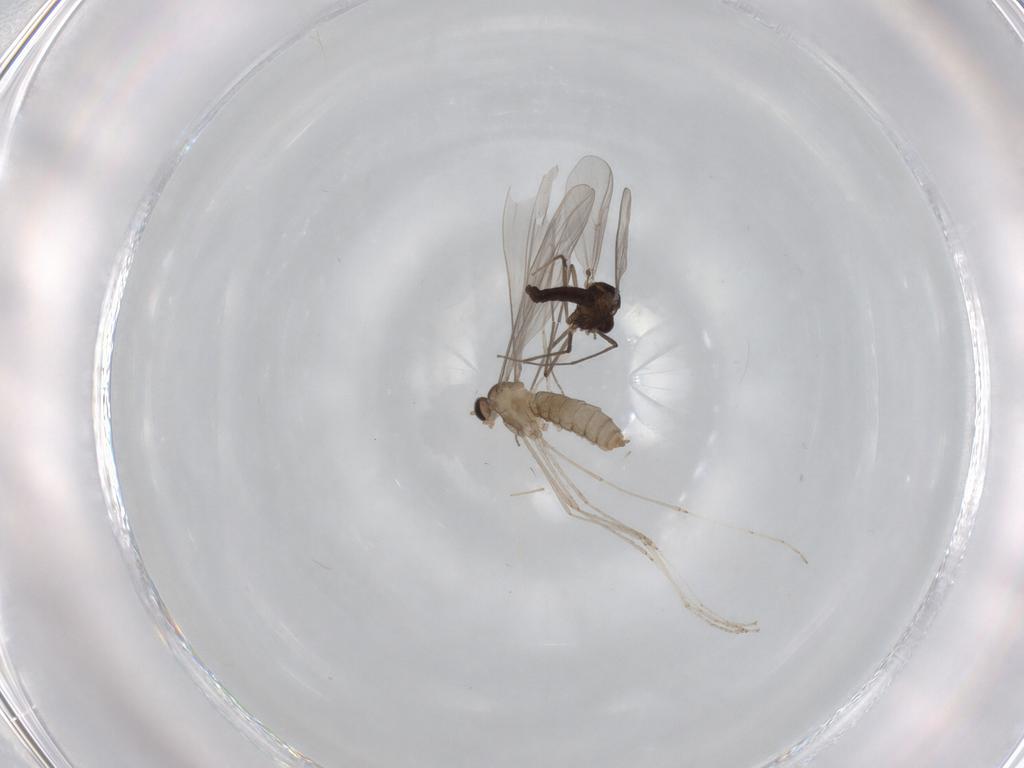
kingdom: Animalia
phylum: Arthropoda
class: Insecta
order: Diptera
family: Cecidomyiidae
